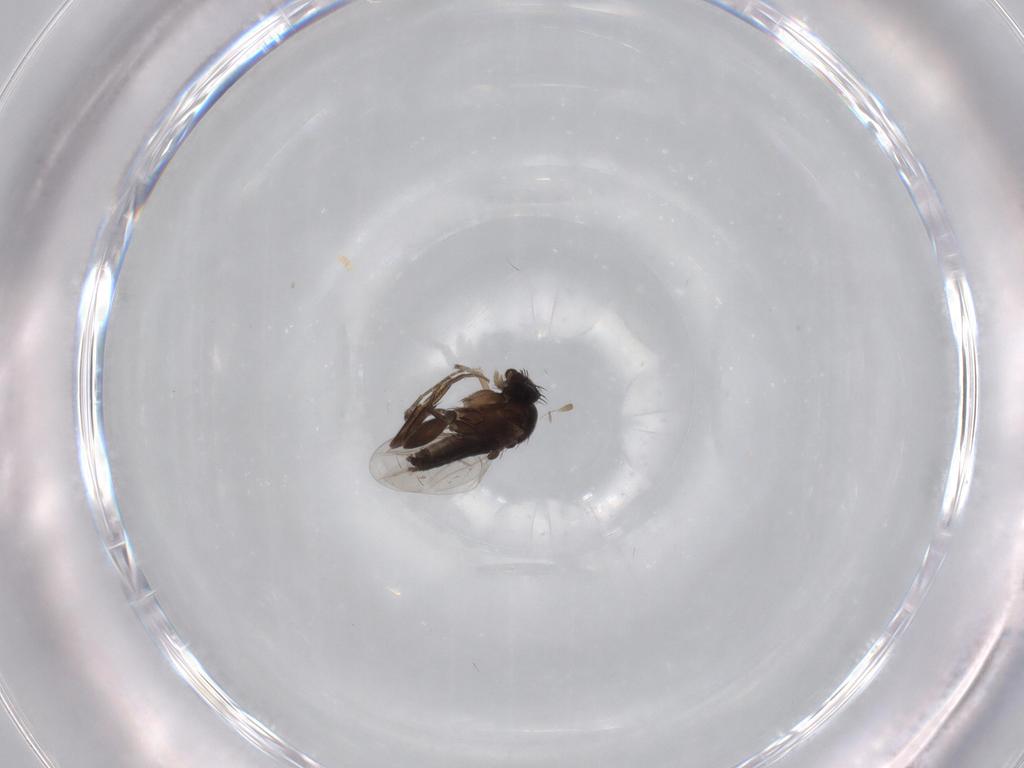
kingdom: Animalia
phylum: Arthropoda
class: Insecta
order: Diptera
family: Phoridae
